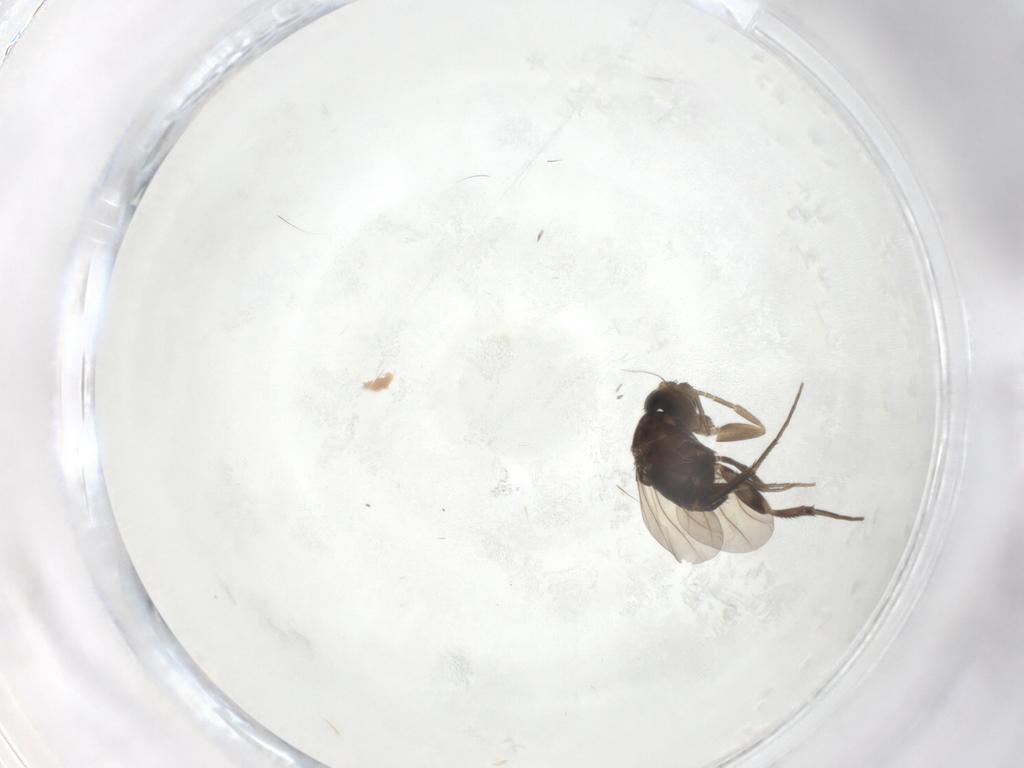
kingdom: Animalia
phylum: Arthropoda
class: Insecta
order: Diptera
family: Phoridae
